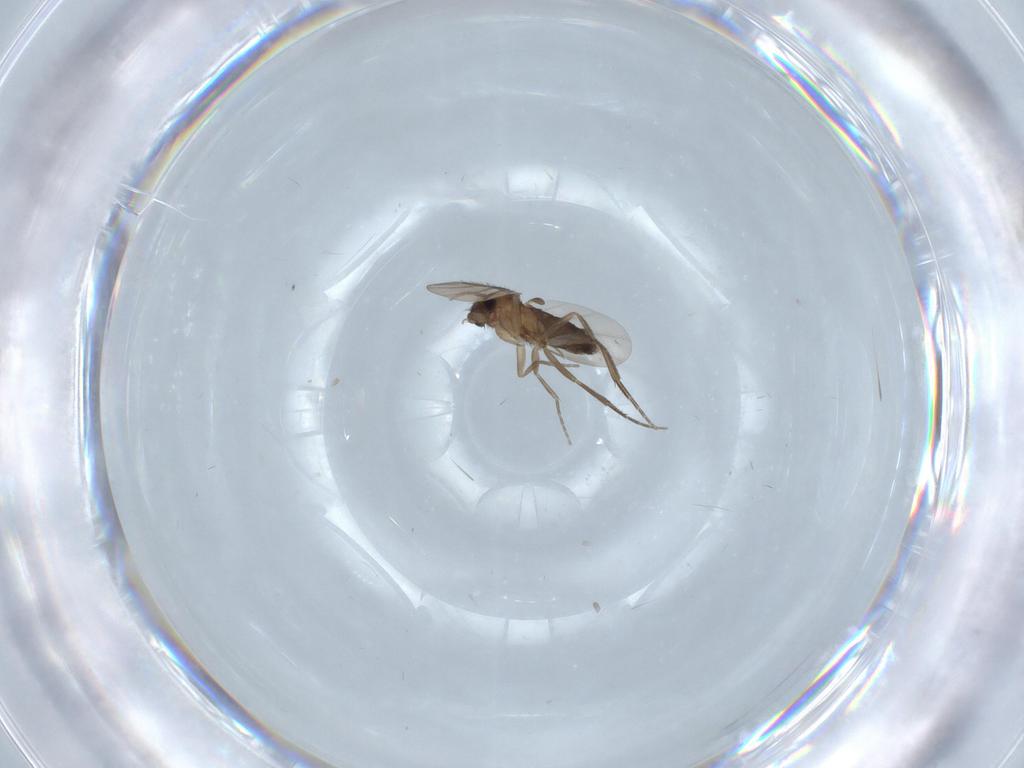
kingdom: Animalia
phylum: Arthropoda
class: Insecta
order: Diptera
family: Phoridae
